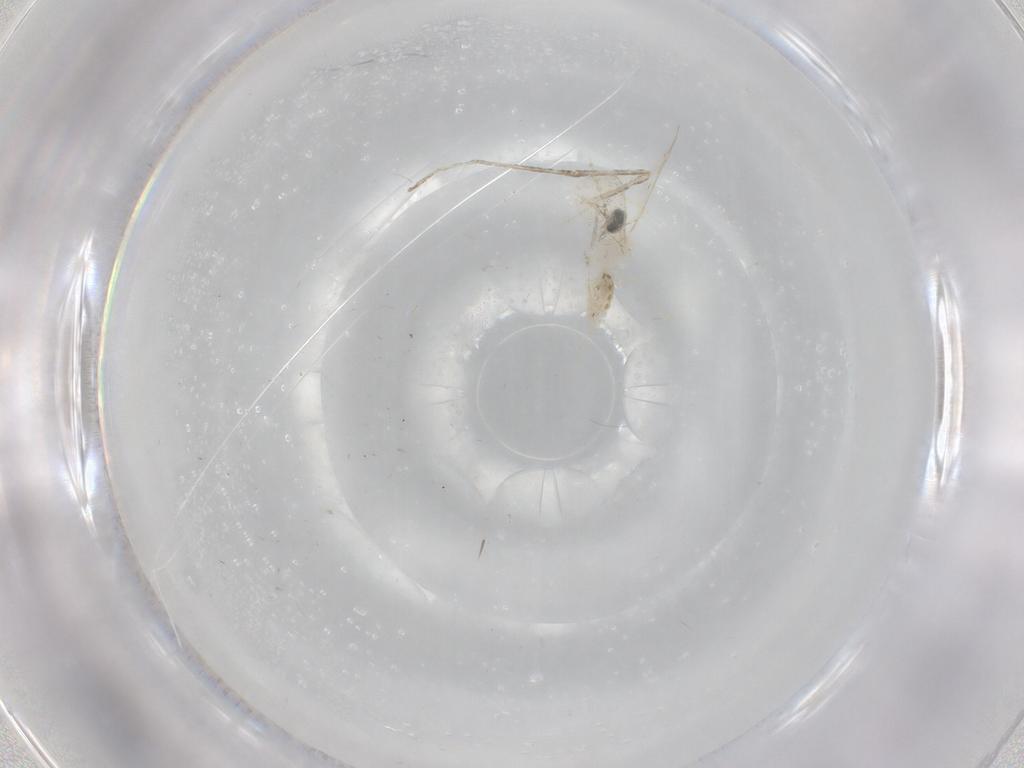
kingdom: Animalia
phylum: Arthropoda
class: Insecta
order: Diptera
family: Cecidomyiidae
